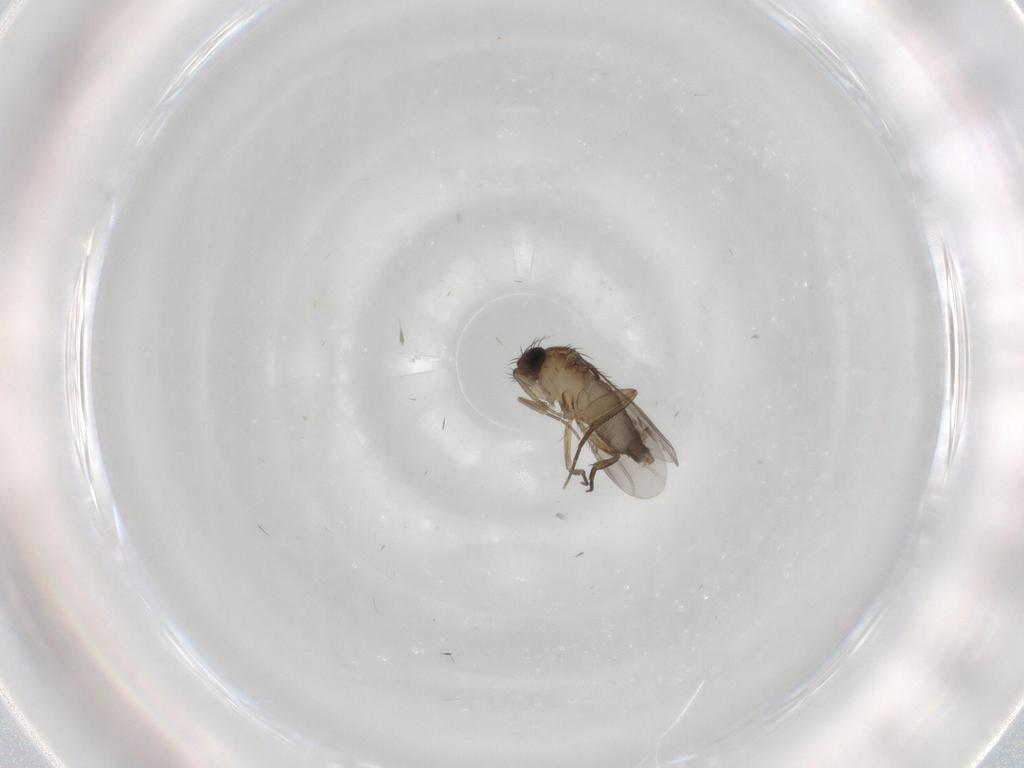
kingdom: Animalia
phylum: Arthropoda
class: Insecta
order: Diptera
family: Phoridae
